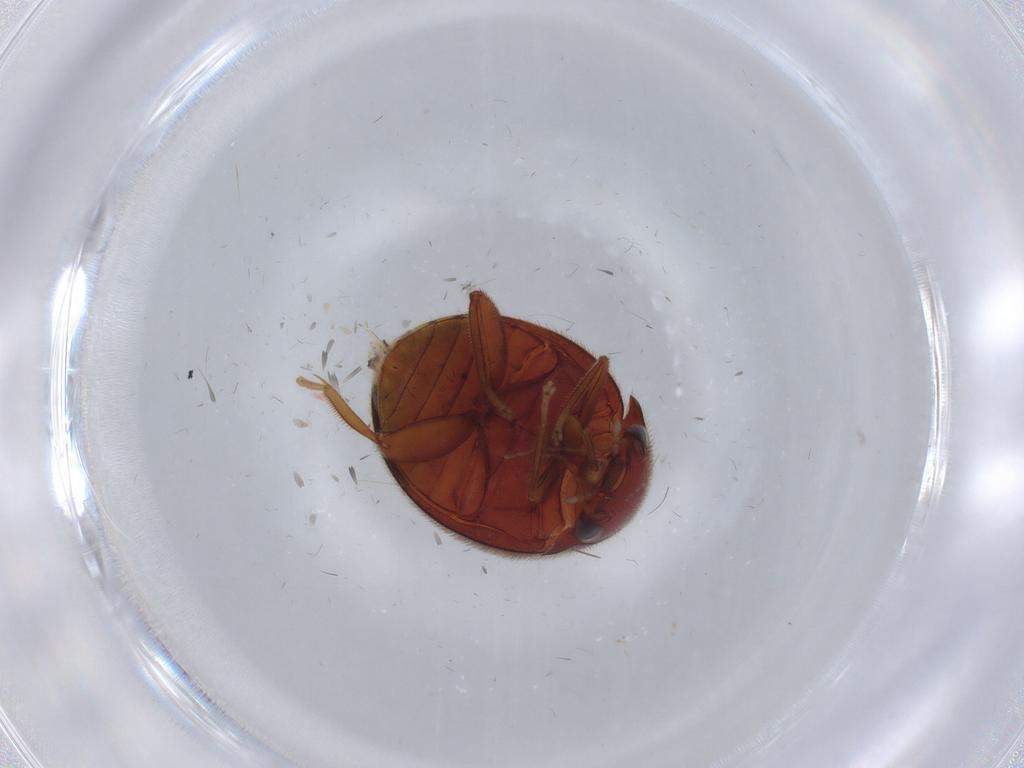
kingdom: Animalia
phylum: Arthropoda
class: Insecta
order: Coleoptera
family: Scirtidae
